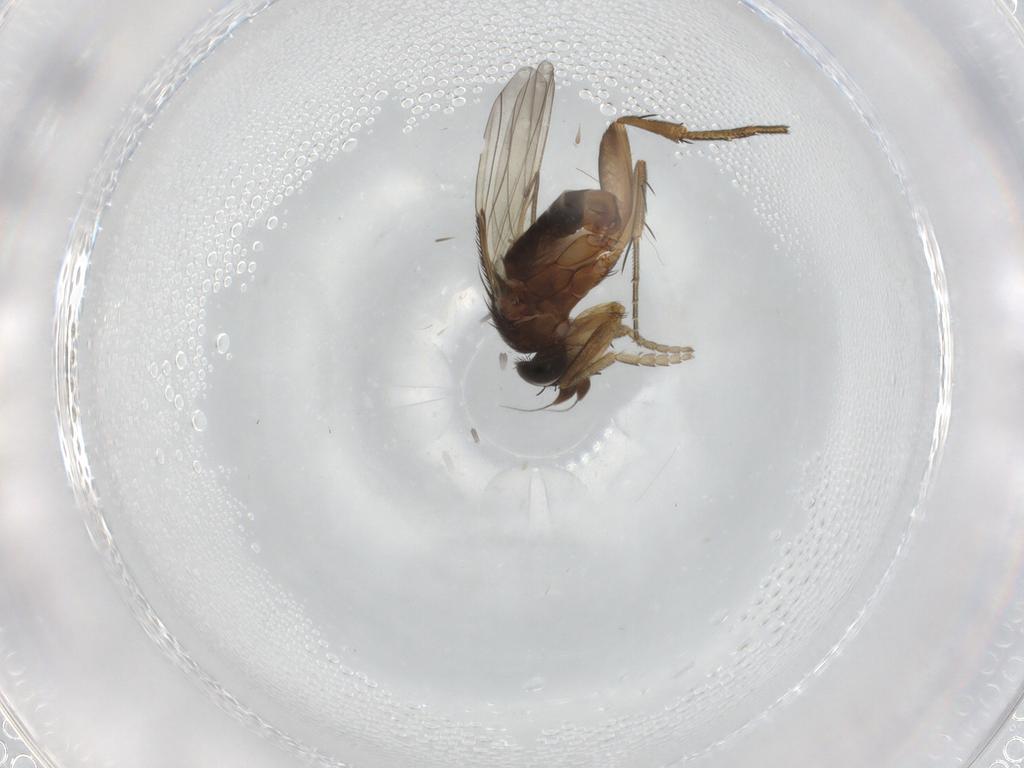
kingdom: Animalia
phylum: Arthropoda
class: Insecta
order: Diptera
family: Phoridae
